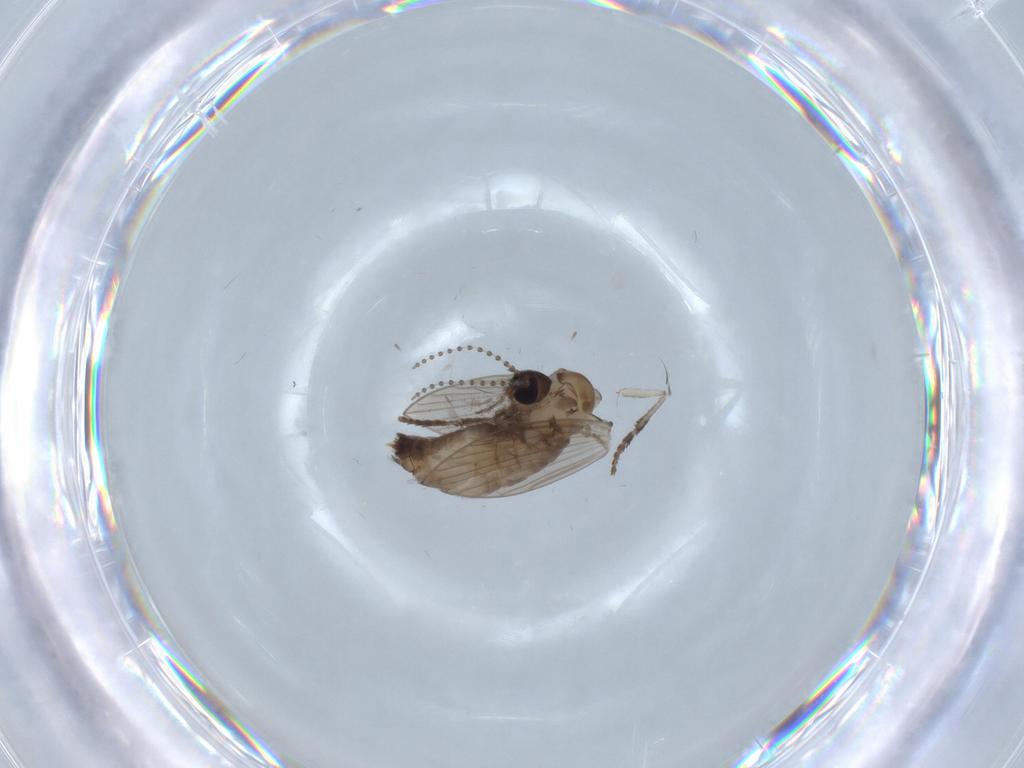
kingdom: Animalia
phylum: Arthropoda
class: Insecta
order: Diptera
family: Psychodidae
